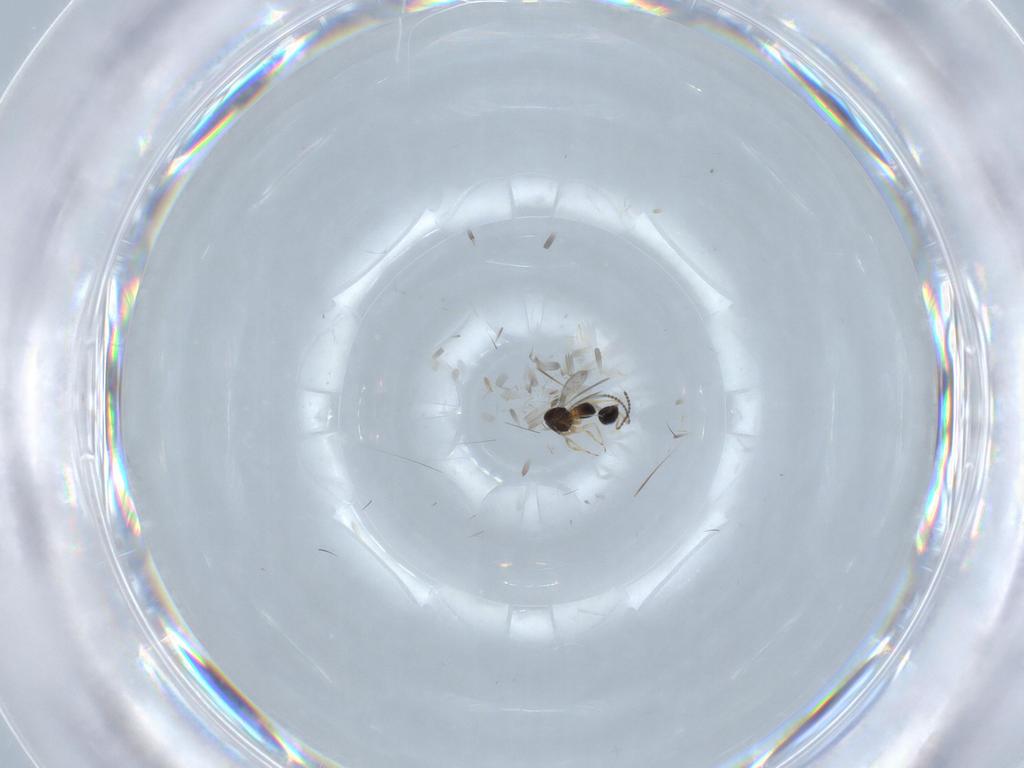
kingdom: Animalia
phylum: Arthropoda
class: Insecta
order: Hymenoptera
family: Scelionidae
